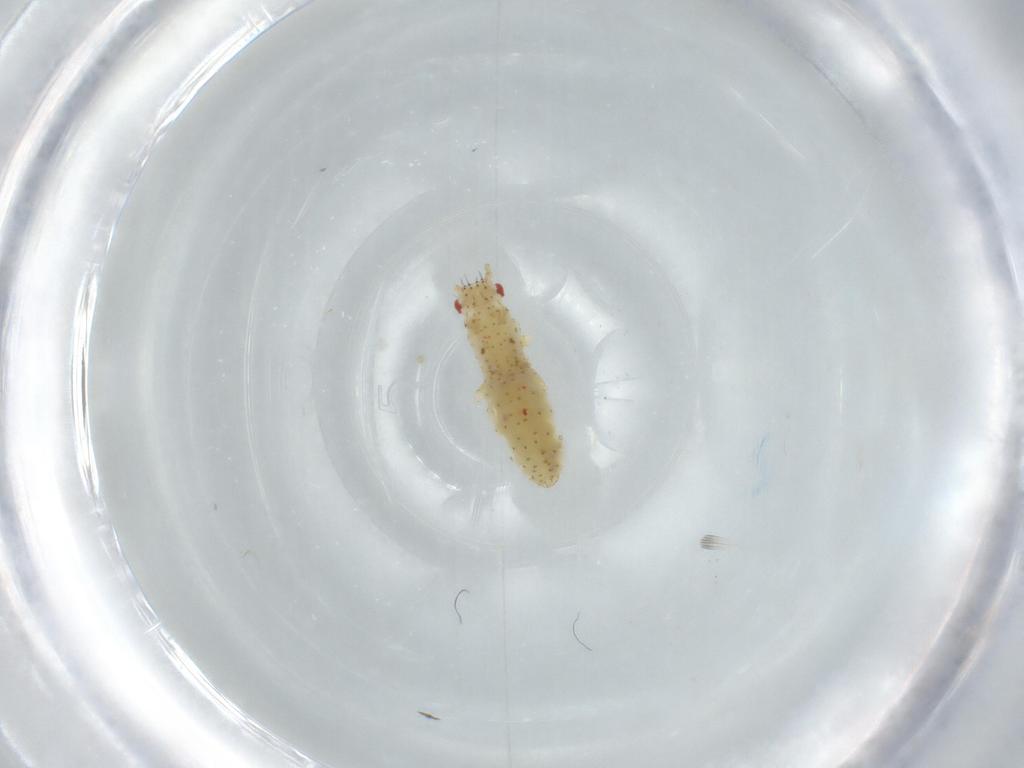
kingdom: Animalia
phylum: Arthropoda
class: Insecta
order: Hemiptera
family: Aphididae
